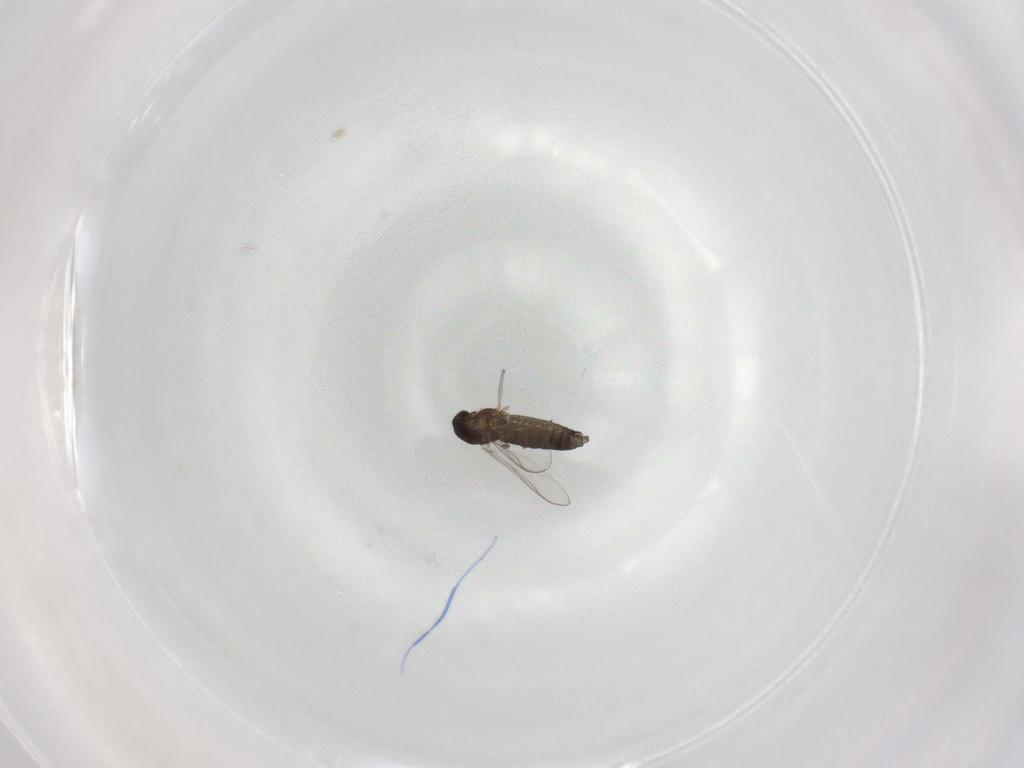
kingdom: Animalia
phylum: Arthropoda
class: Insecta
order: Diptera
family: Chironomidae
